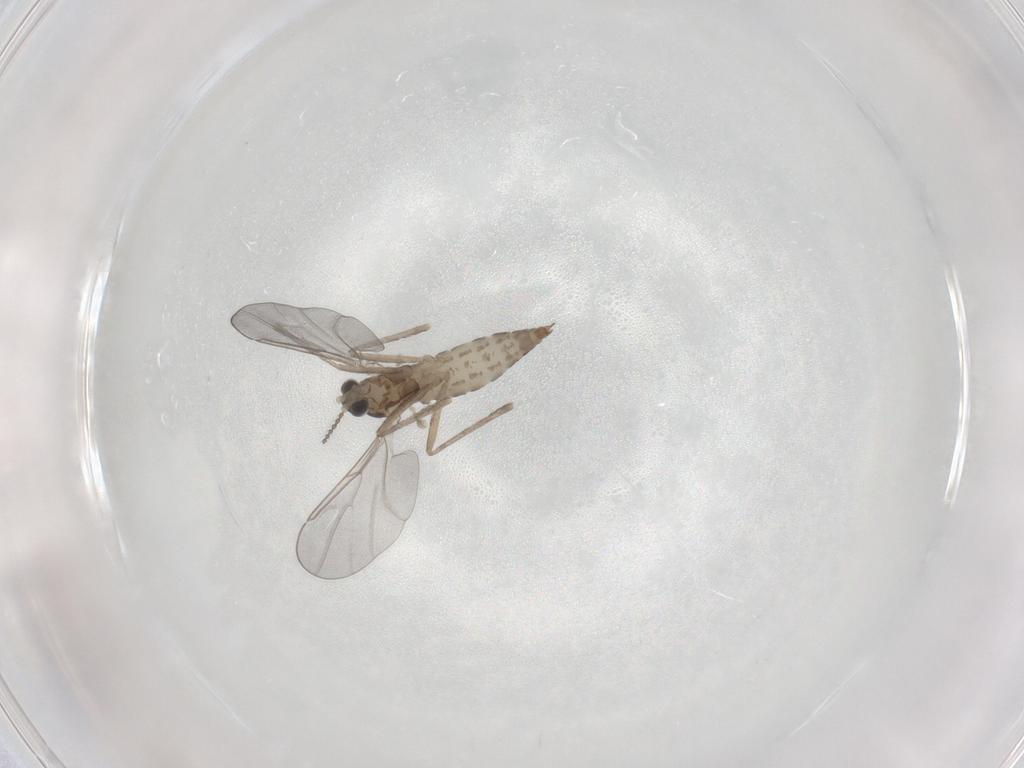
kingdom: Animalia
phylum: Arthropoda
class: Insecta
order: Diptera
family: Cecidomyiidae
